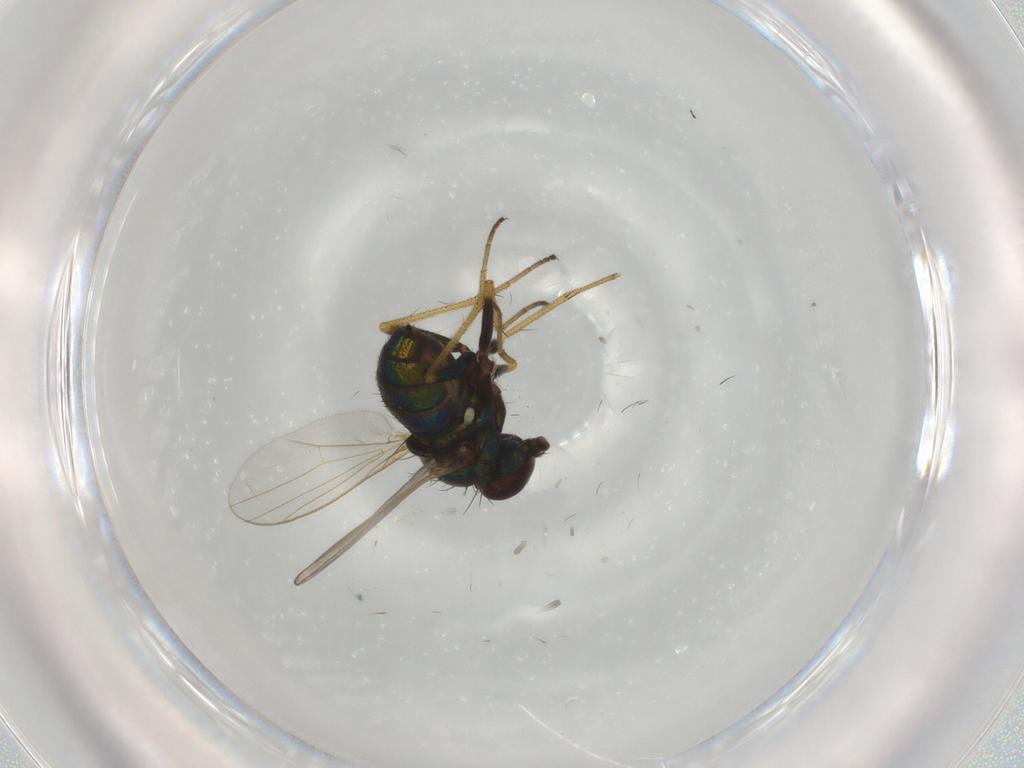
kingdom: Animalia
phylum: Arthropoda
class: Insecta
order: Diptera
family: Dolichopodidae
